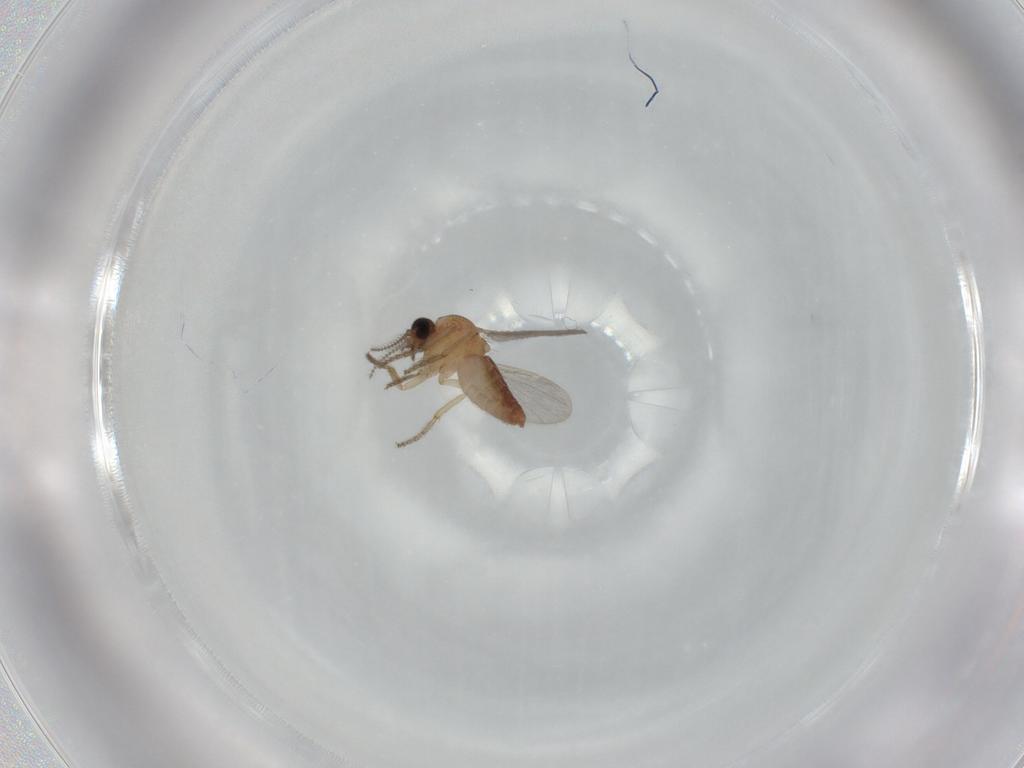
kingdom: Animalia
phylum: Arthropoda
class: Insecta
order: Diptera
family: Ceratopogonidae
